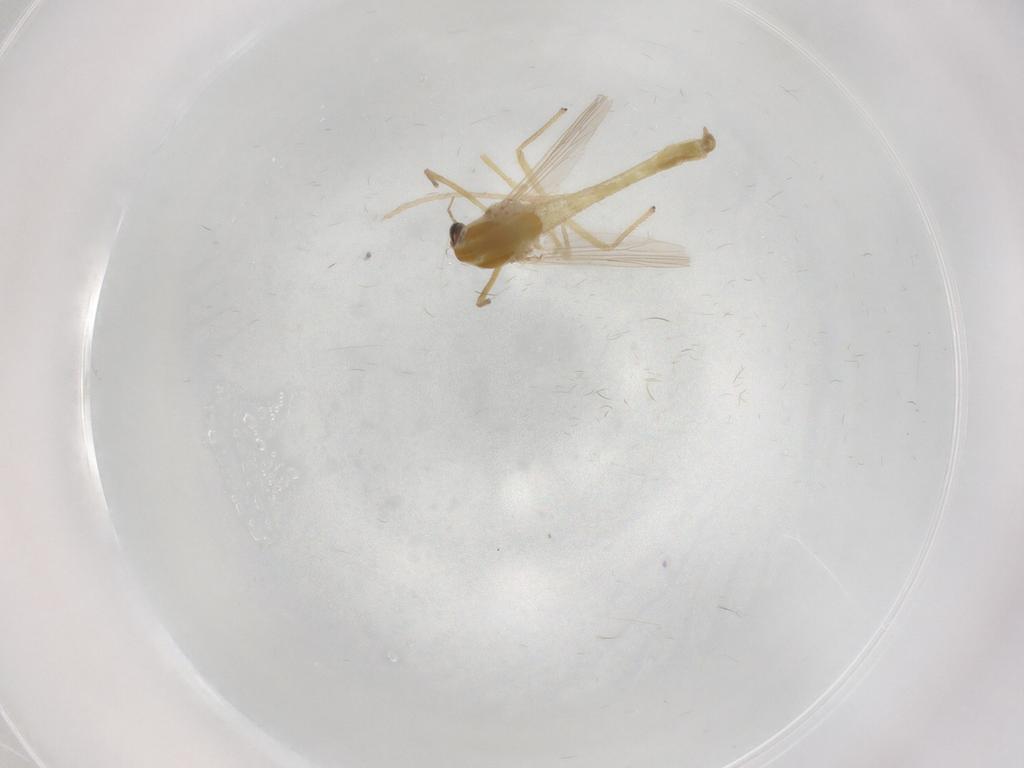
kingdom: Animalia
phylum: Arthropoda
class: Insecta
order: Diptera
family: Chironomidae
